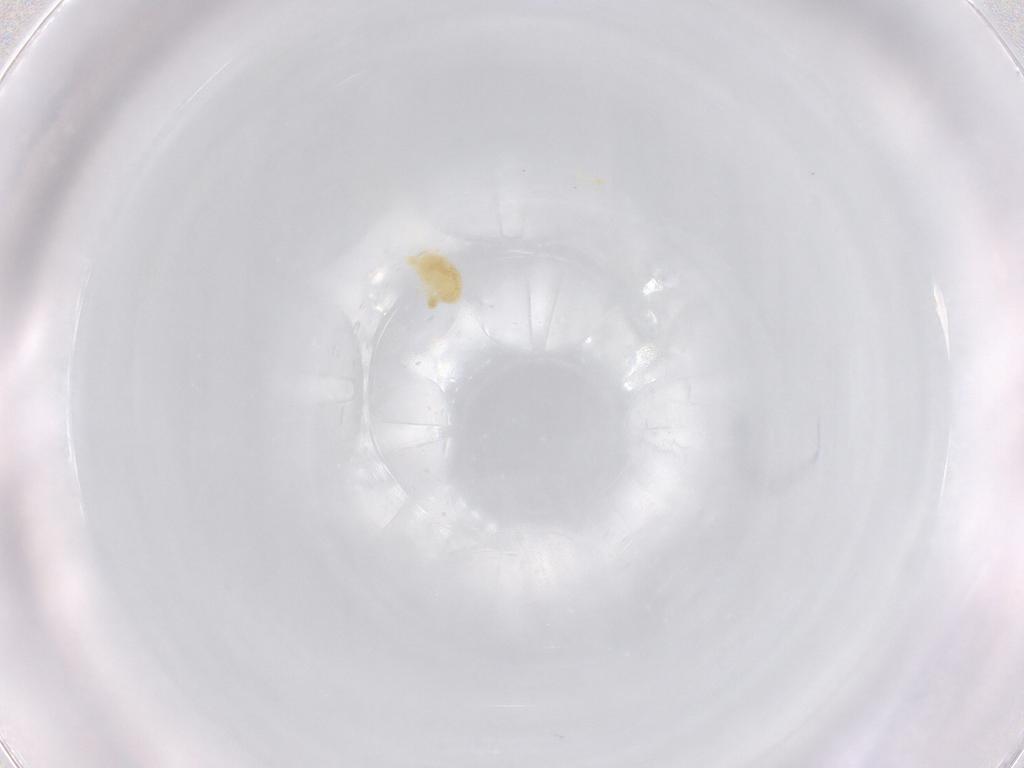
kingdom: Animalia
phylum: Arthropoda
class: Arachnida
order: Trombidiformes
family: Eupodidae
